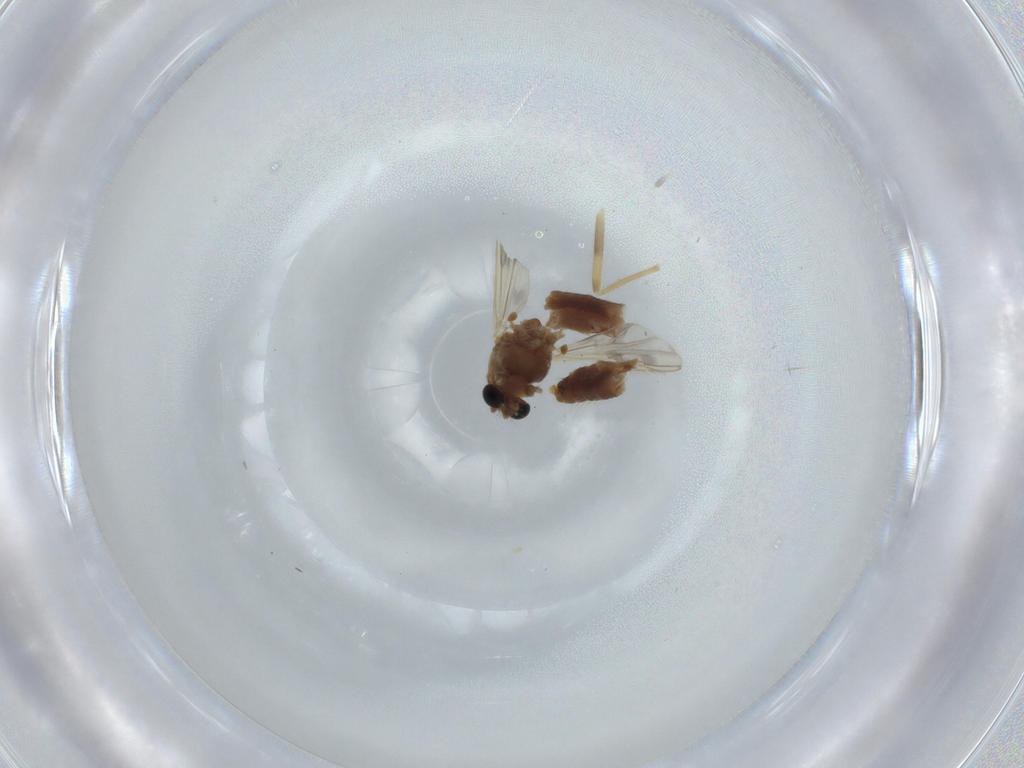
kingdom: Animalia
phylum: Arthropoda
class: Insecta
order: Diptera
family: Chironomidae
